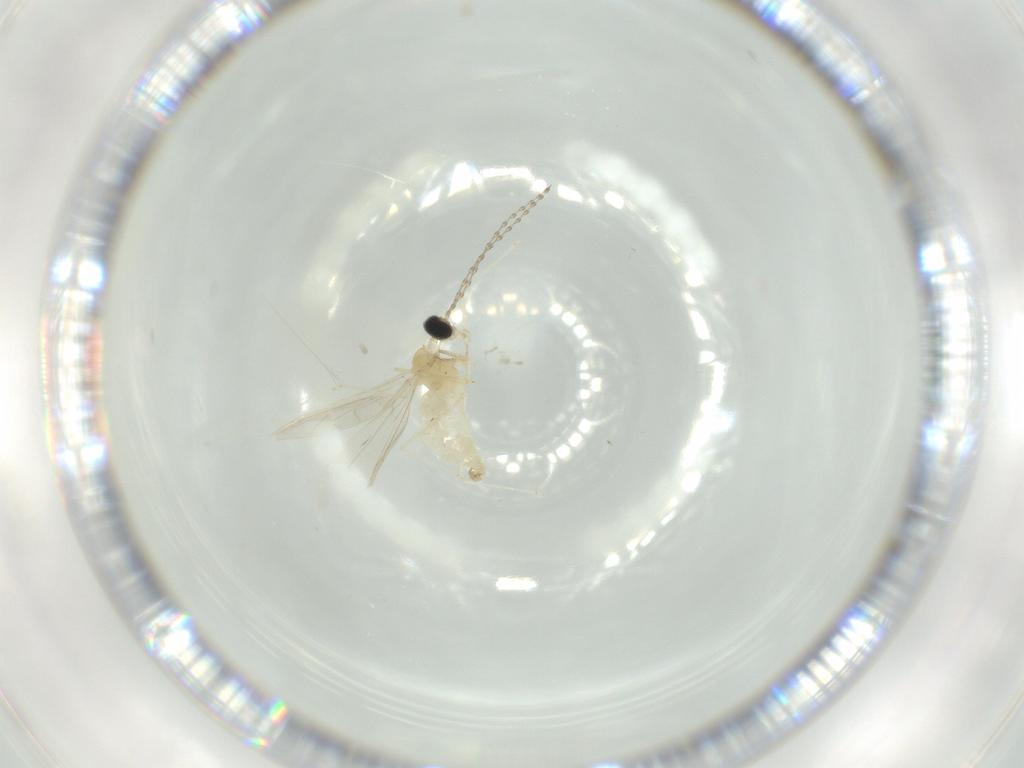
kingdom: Animalia
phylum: Arthropoda
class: Insecta
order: Diptera
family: Cecidomyiidae
